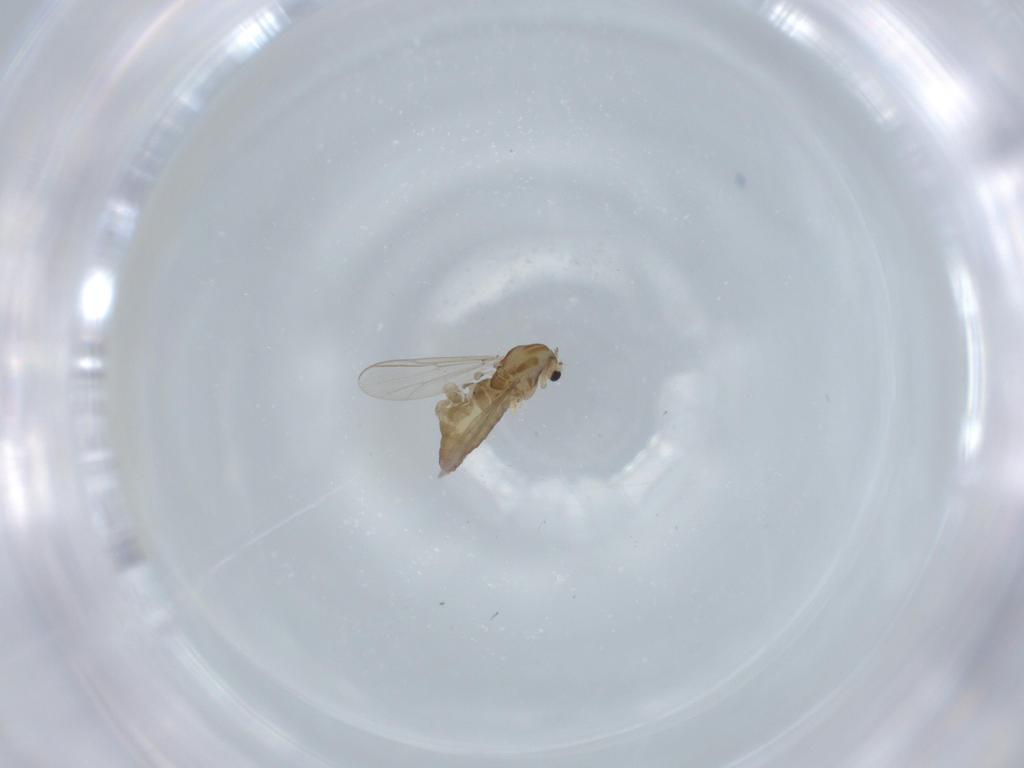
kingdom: Animalia
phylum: Arthropoda
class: Insecta
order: Diptera
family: Chironomidae
